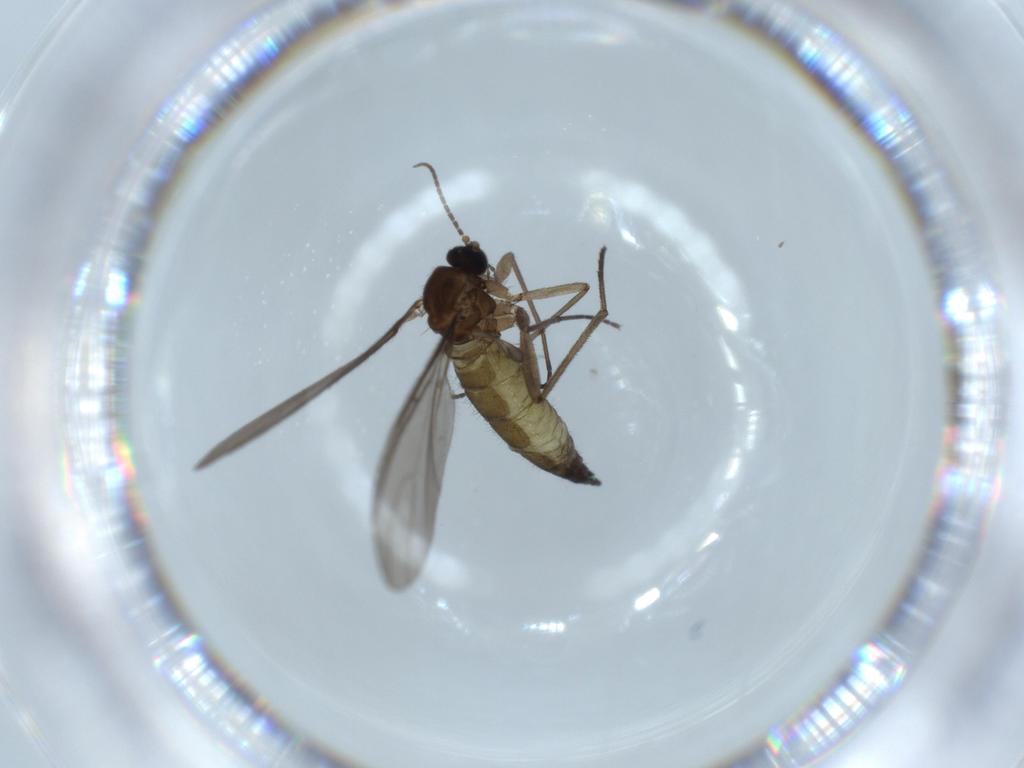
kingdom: Animalia
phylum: Arthropoda
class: Insecta
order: Diptera
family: Sciaridae
